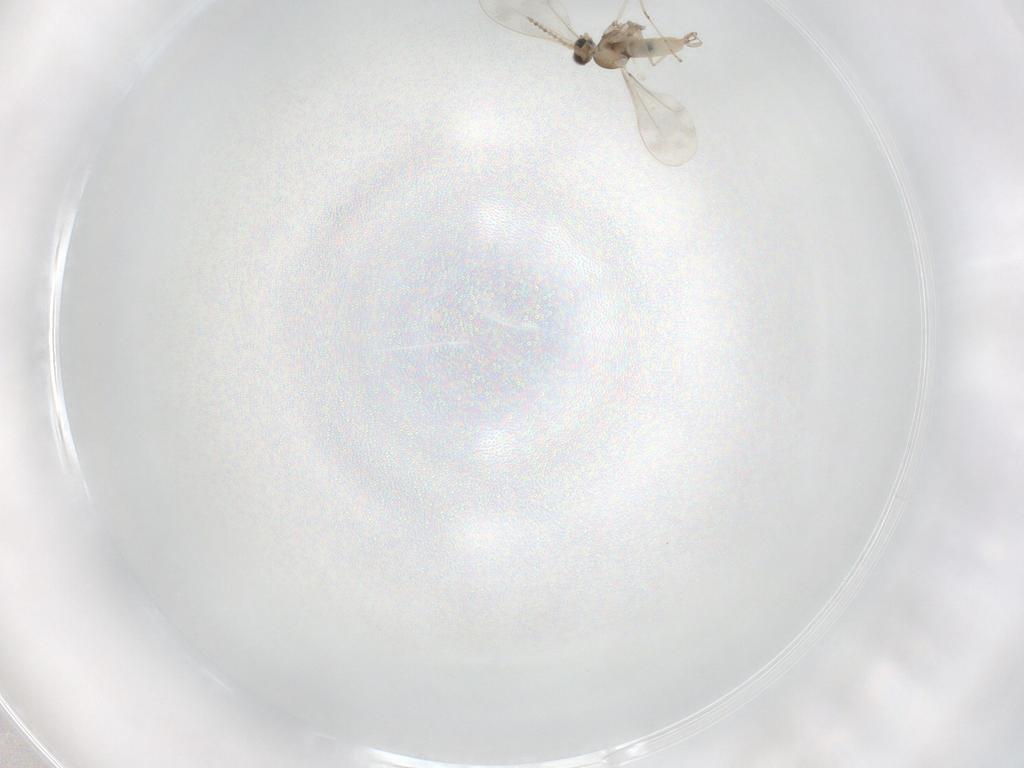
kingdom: Animalia
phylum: Arthropoda
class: Insecta
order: Diptera
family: Cecidomyiidae
